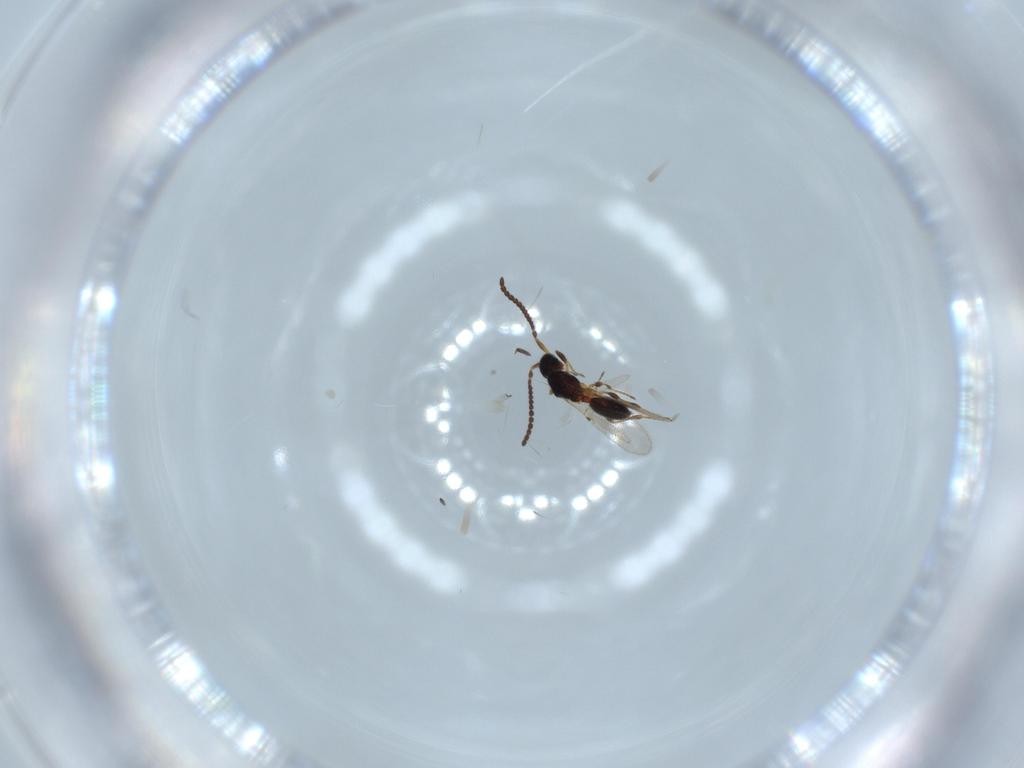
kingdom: Animalia
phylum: Arthropoda
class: Insecta
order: Hymenoptera
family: Diapriidae
